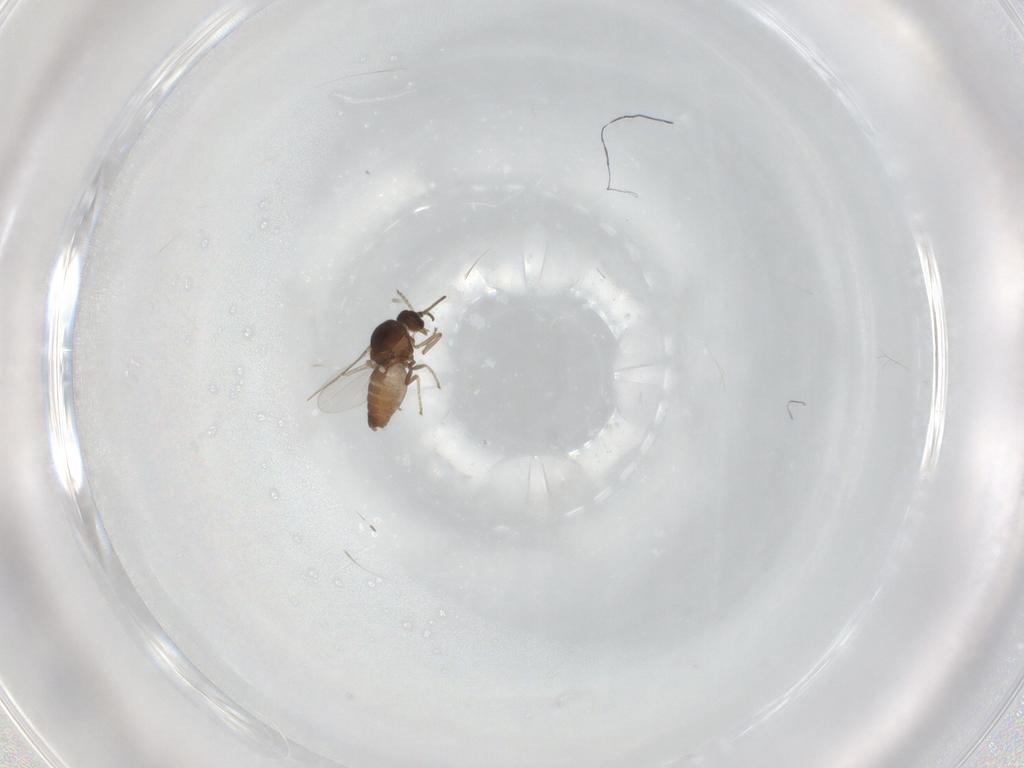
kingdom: Animalia
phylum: Arthropoda
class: Insecta
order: Diptera
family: Ceratopogonidae
